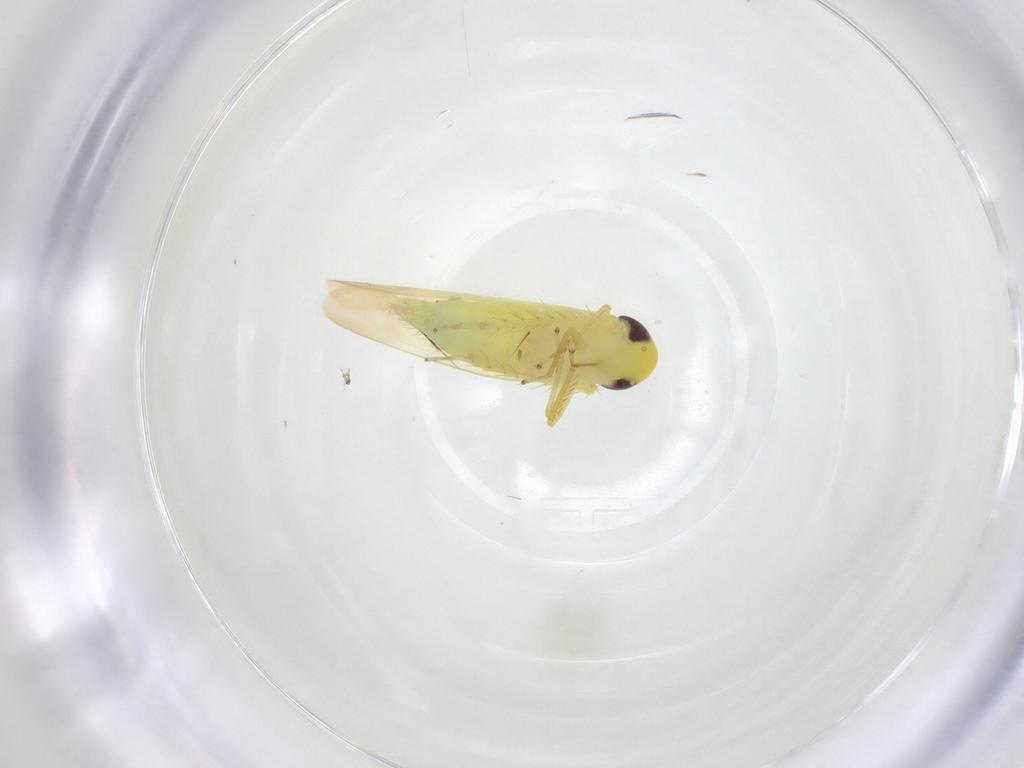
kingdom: Animalia
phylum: Arthropoda
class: Insecta
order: Hemiptera
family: Cicadellidae
